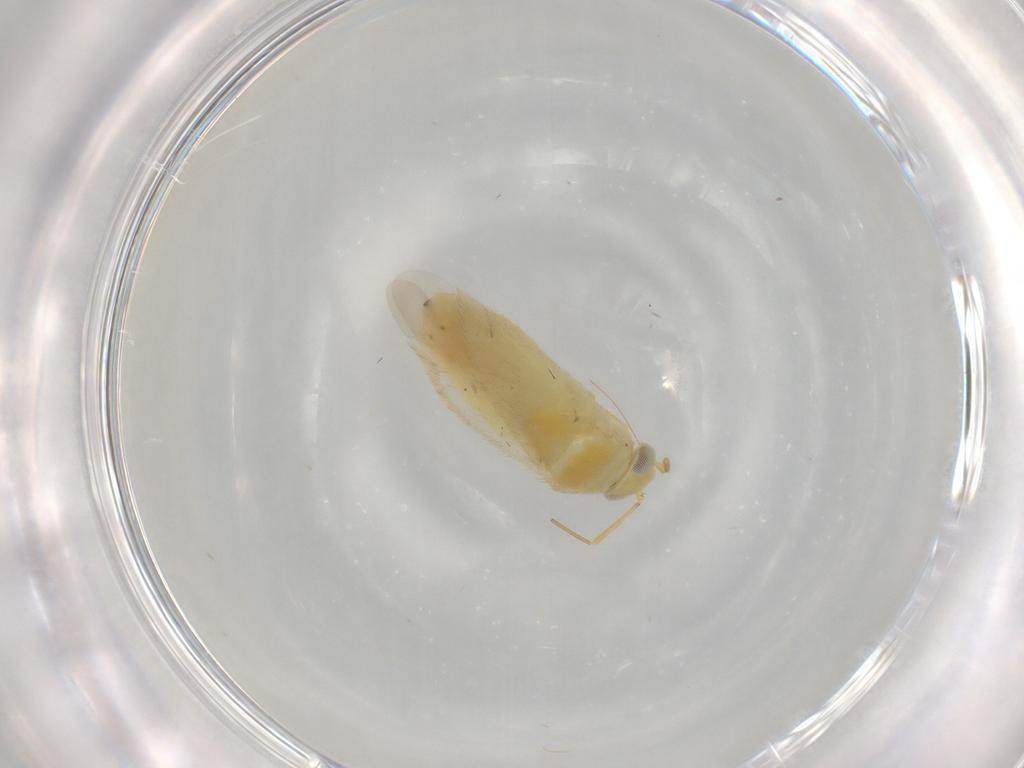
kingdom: Animalia
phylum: Arthropoda
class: Insecta
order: Hemiptera
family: Miridae
